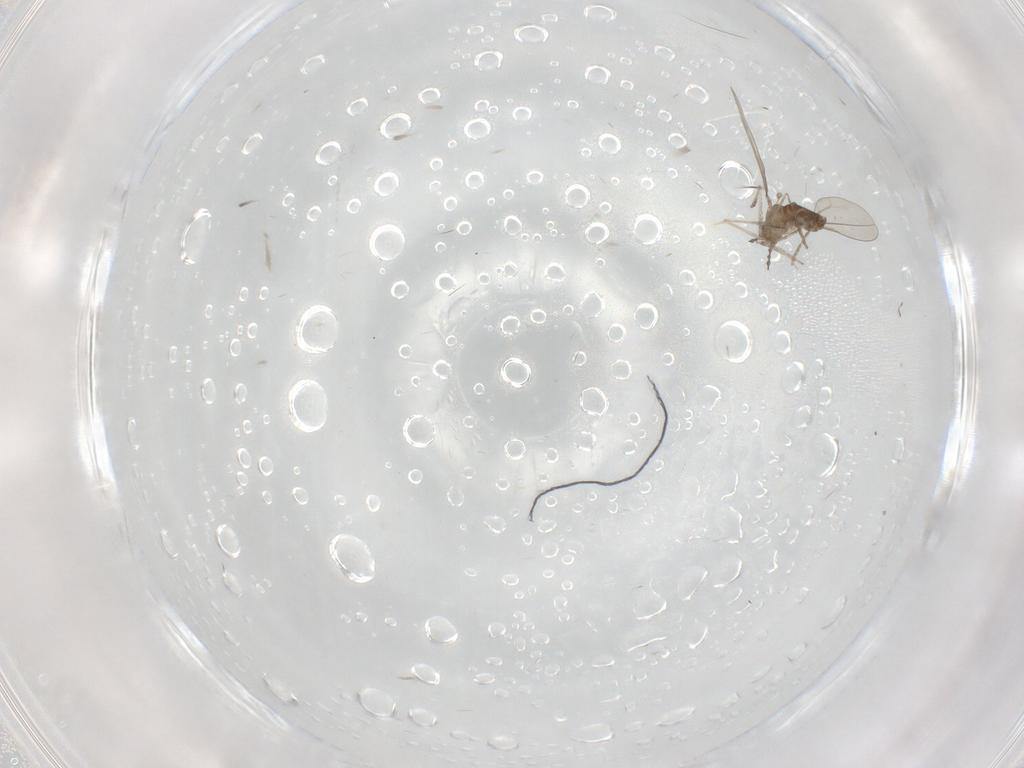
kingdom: Animalia
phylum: Arthropoda
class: Insecta
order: Diptera
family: Cecidomyiidae
